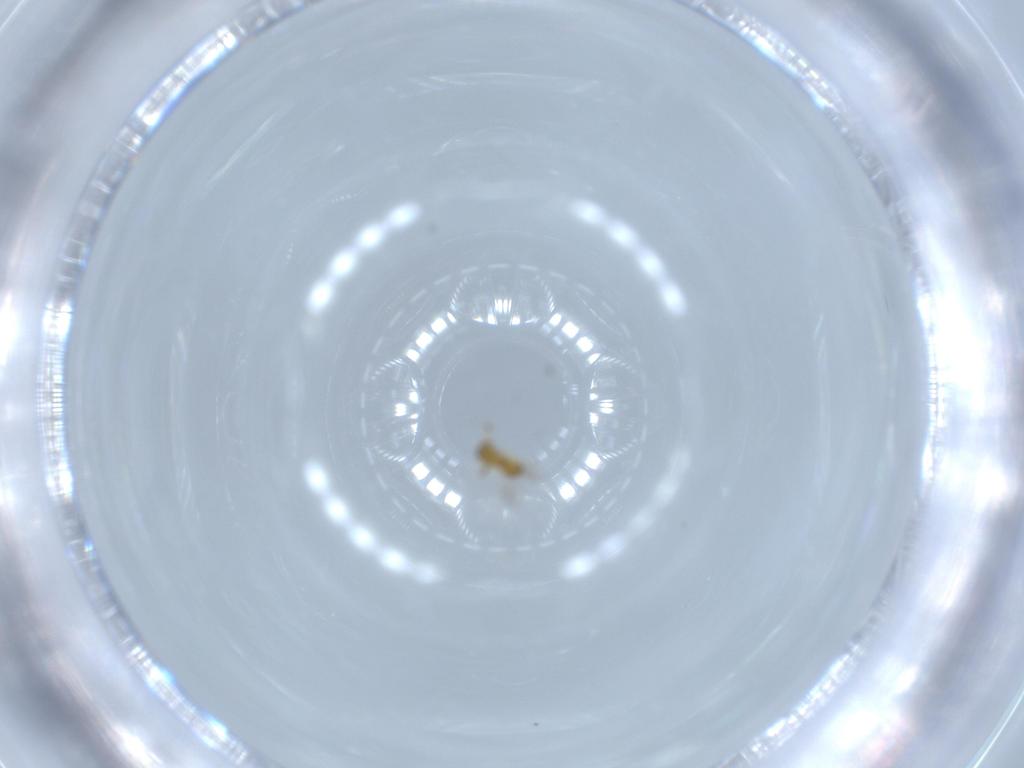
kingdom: Animalia
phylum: Arthropoda
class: Insecta
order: Hymenoptera
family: Platygastridae
